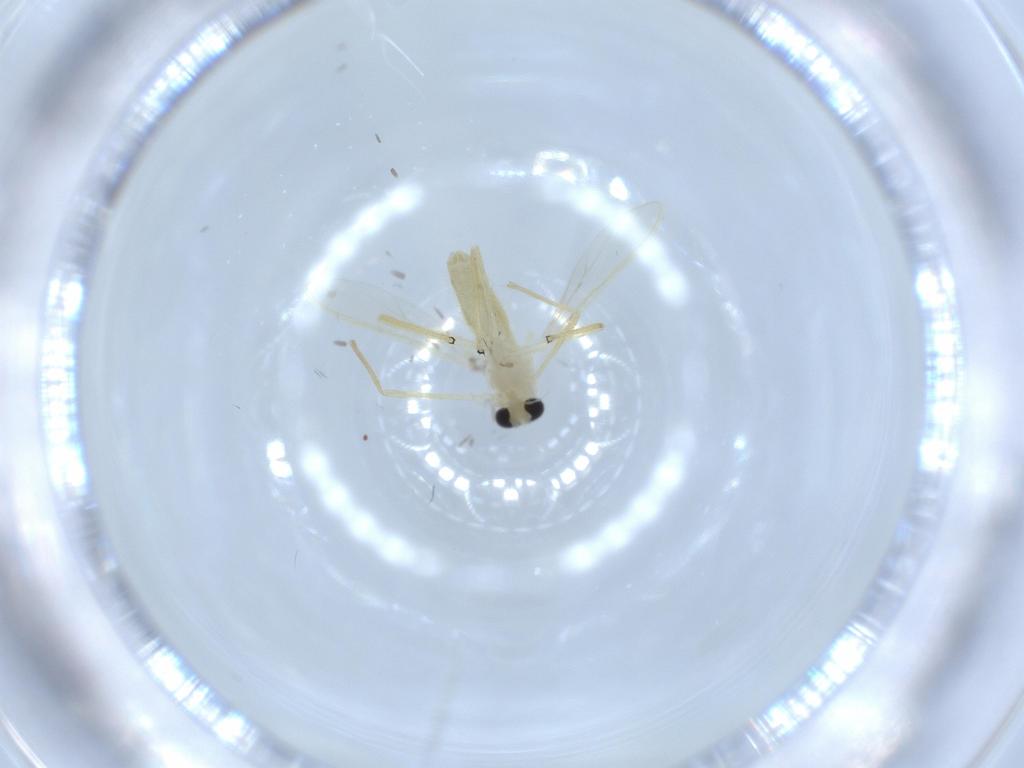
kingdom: Animalia
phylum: Arthropoda
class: Insecta
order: Diptera
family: Chironomidae
